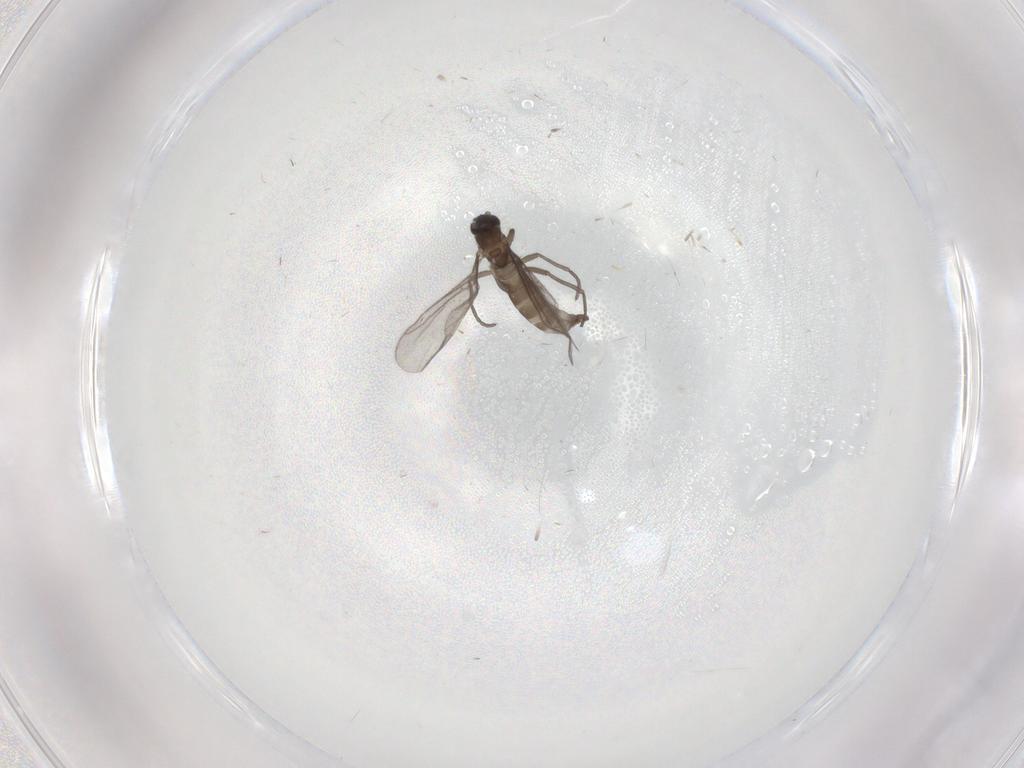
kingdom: Animalia
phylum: Arthropoda
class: Insecta
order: Diptera
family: Sciaridae
